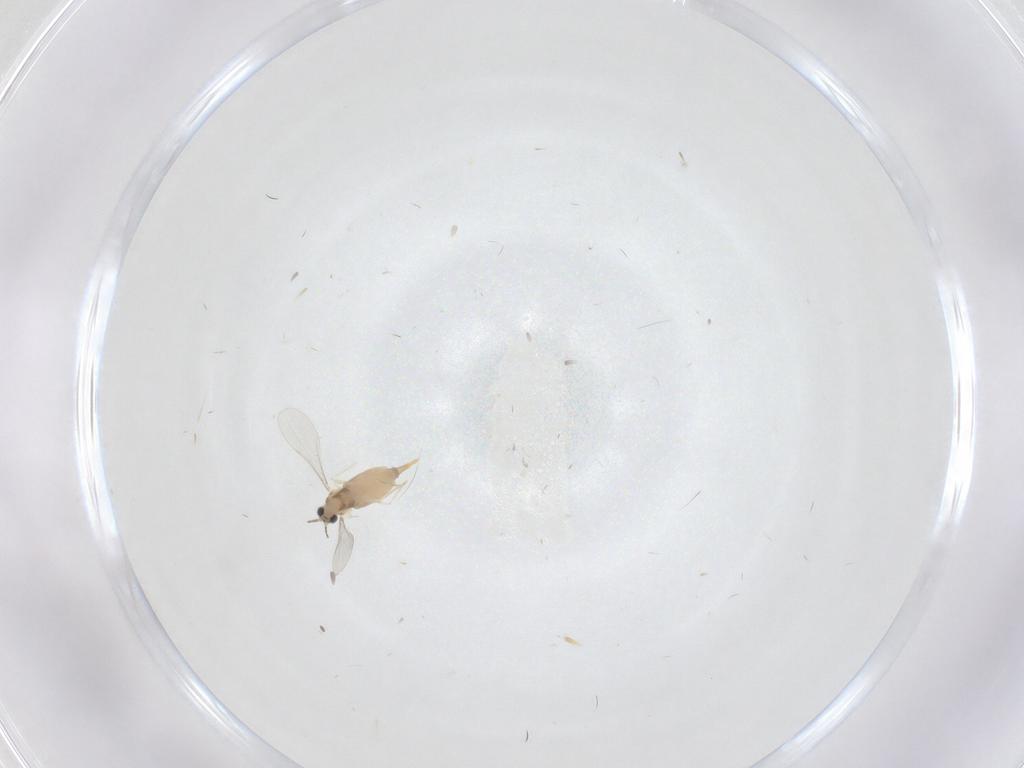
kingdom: Animalia
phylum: Arthropoda
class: Insecta
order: Diptera
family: Cecidomyiidae
